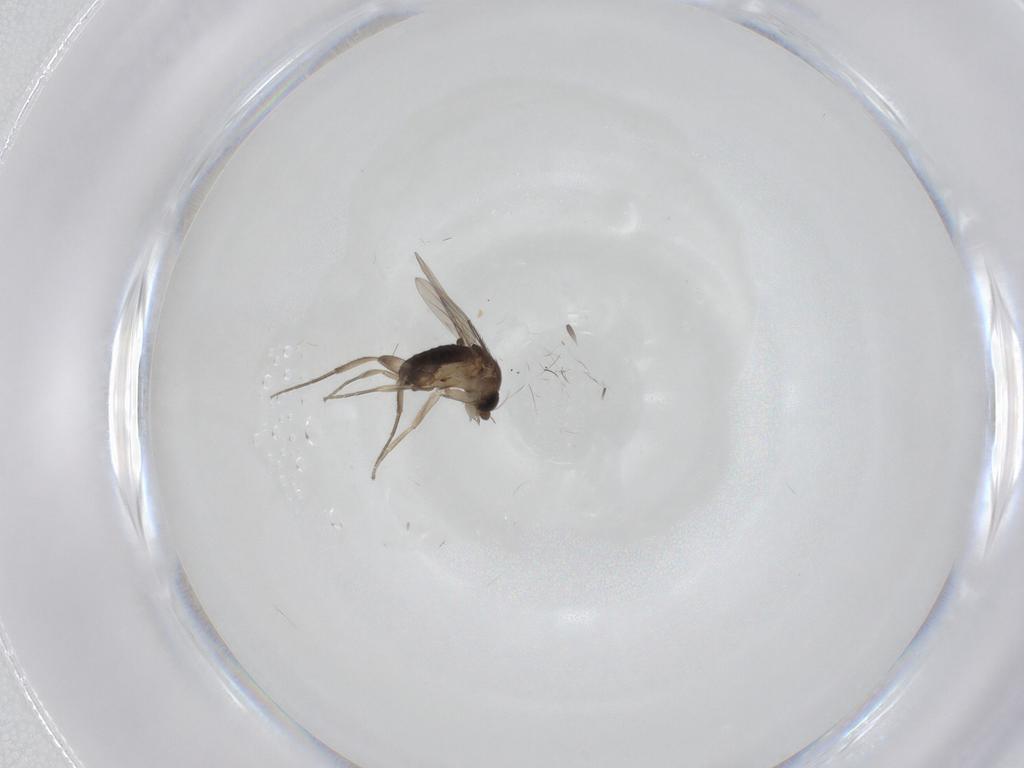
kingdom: Animalia
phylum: Arthropoda
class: Insecta
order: Diptera
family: Phoridae
